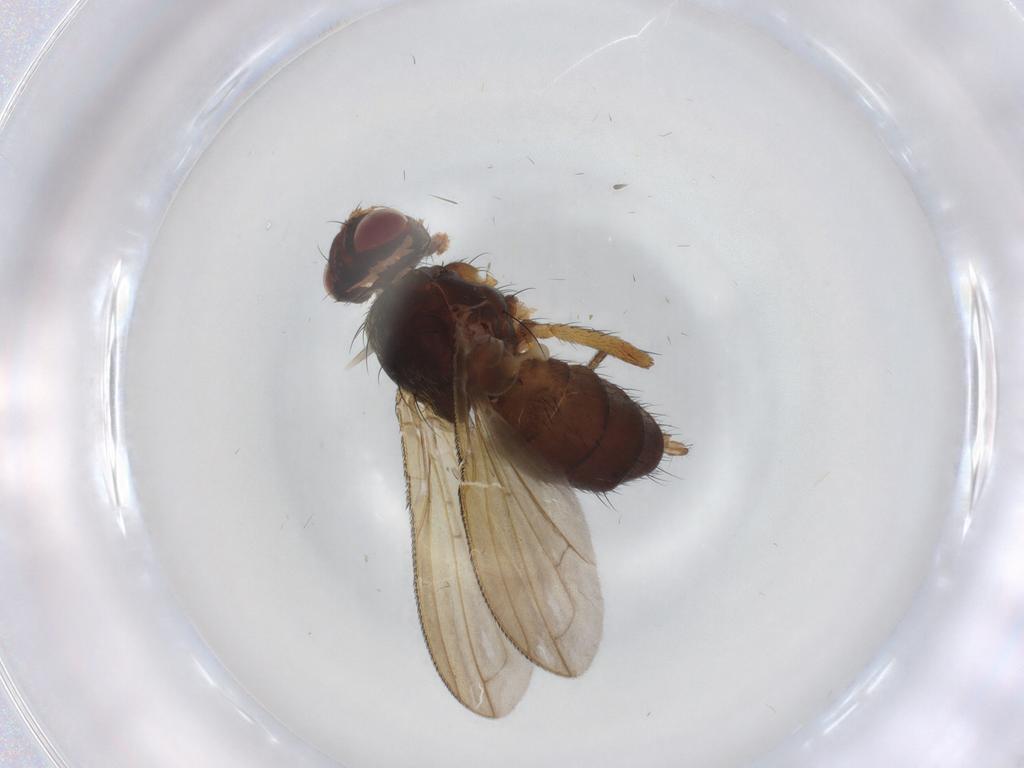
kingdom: Animalia
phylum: Arthropoda
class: Insecta
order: Diptera
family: Polleniidae
